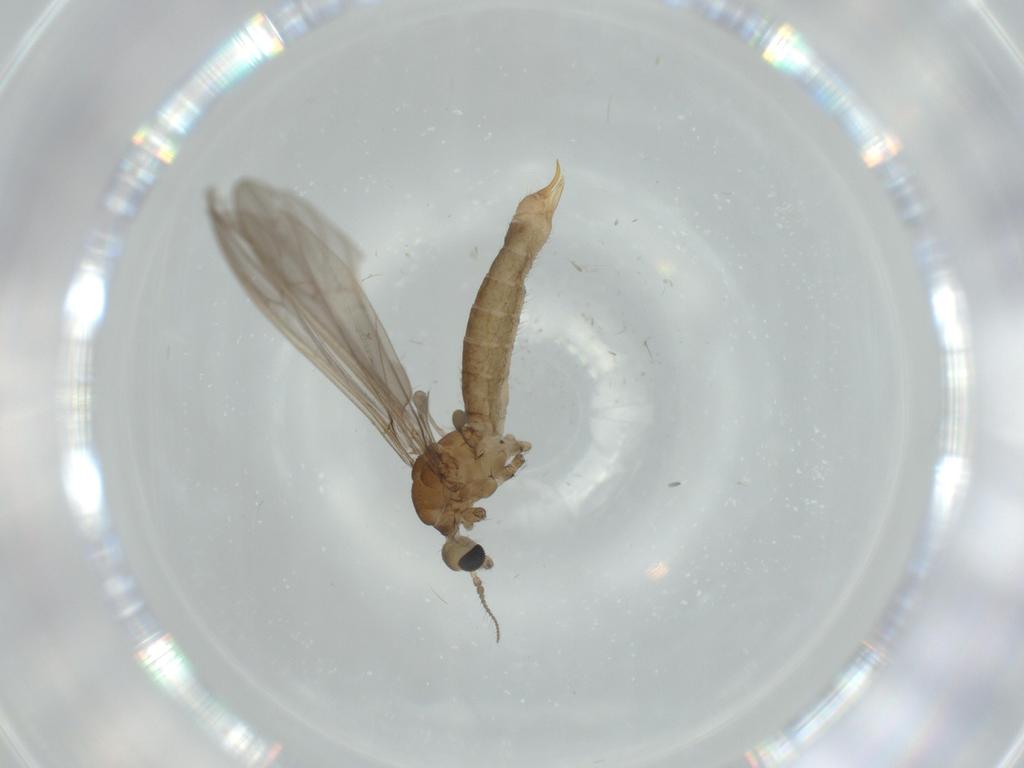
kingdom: Animalia
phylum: Arthropoda
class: Insecta
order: Diptera
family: Limoniidae
